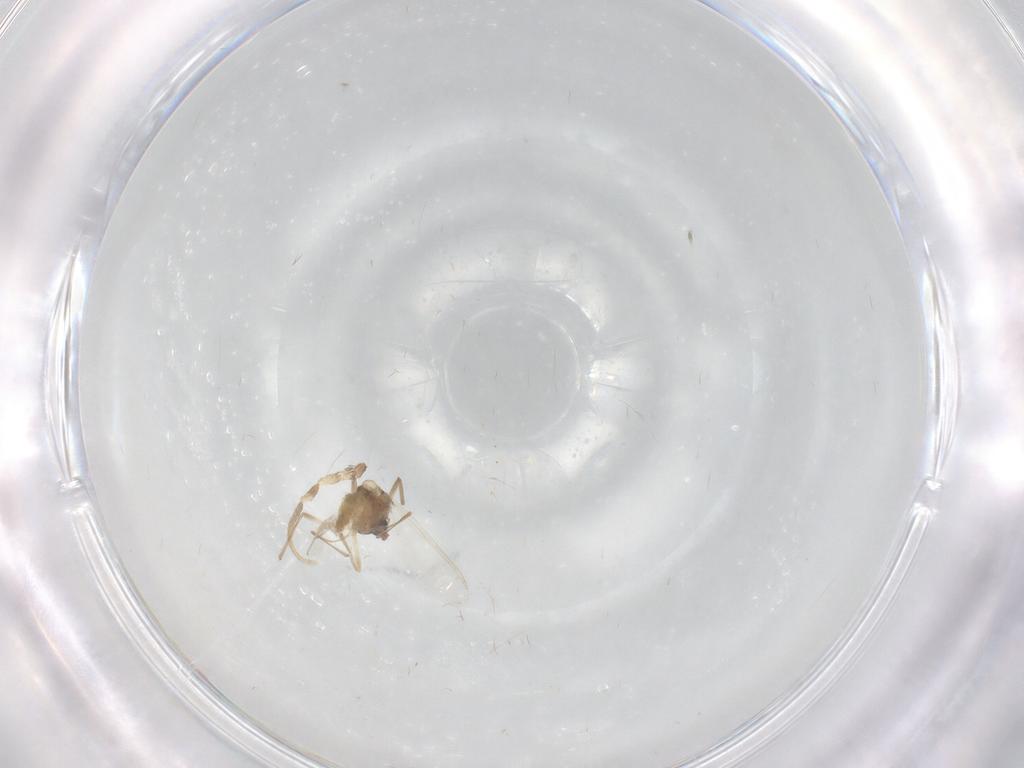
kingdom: Animalia
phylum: Arthropoda
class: Insecta
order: Diptera
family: Chironomidae
